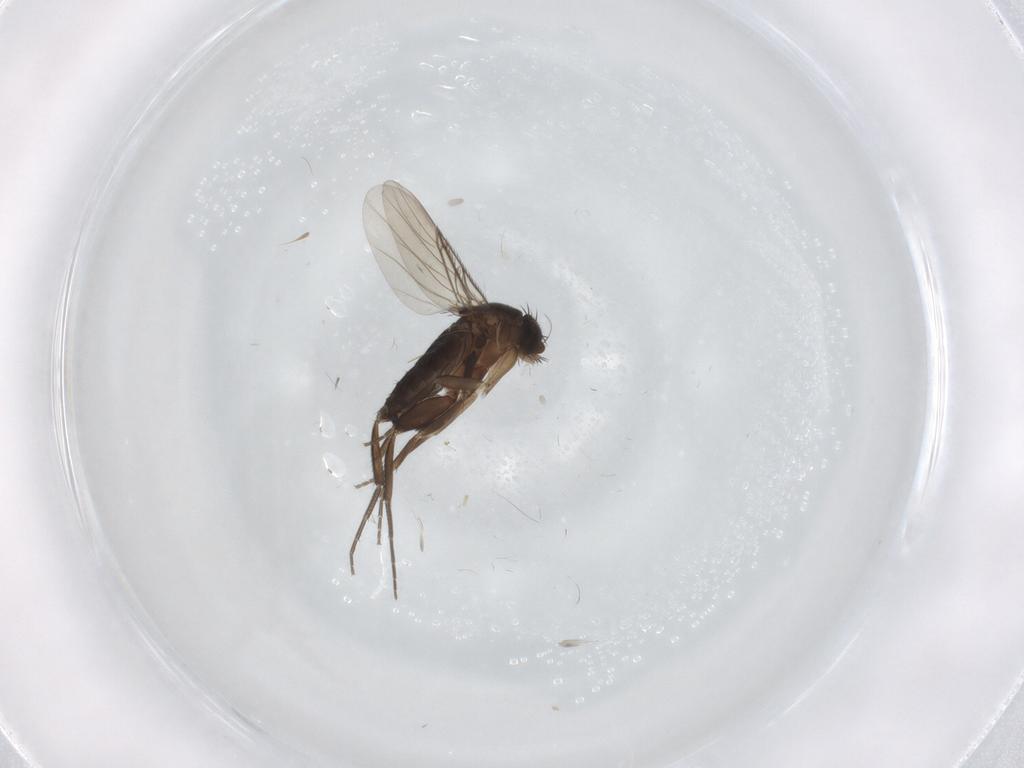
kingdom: Animalia
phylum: Arthropoda
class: Insecta
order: Diptera
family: Phoridae
